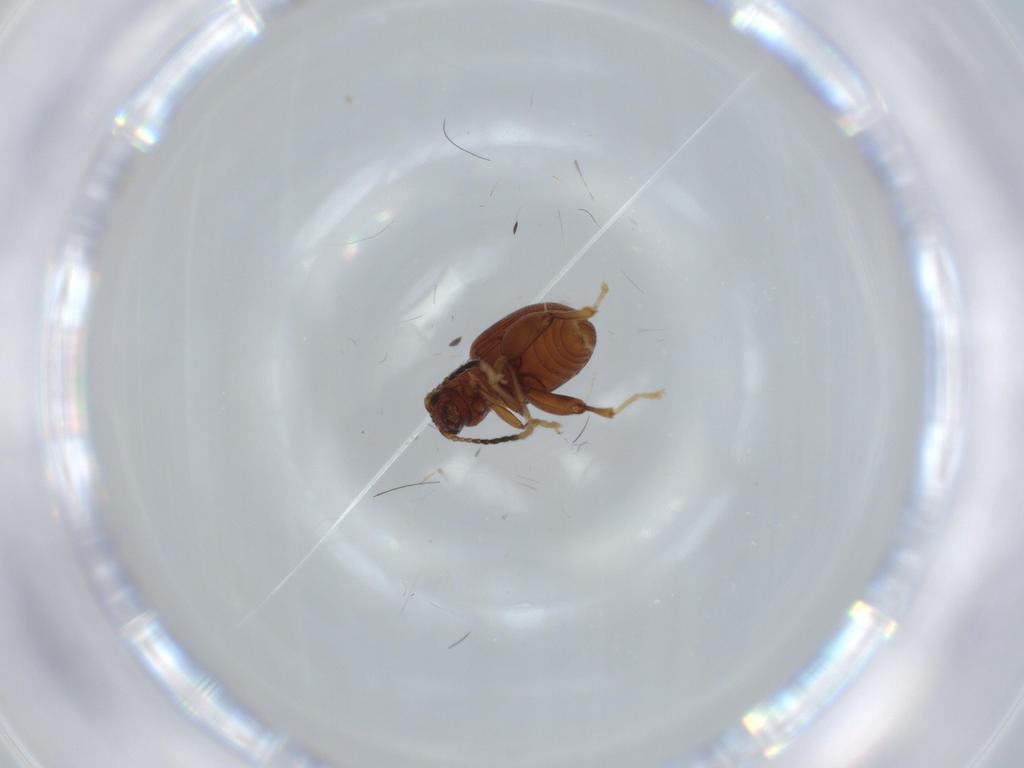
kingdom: Animalia
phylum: Arthropoda
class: Insecta
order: Coleoptera
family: Chrysomelidae
